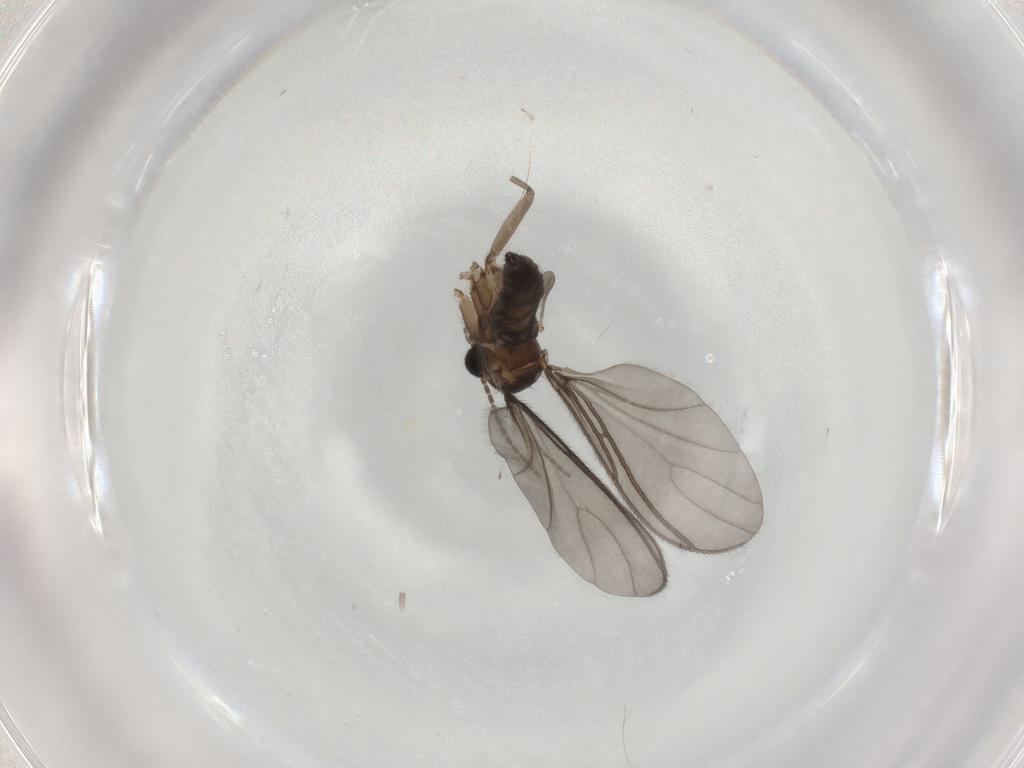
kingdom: Animalia
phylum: Arthropoda
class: Insecta
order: Diptera
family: Sciaridae
